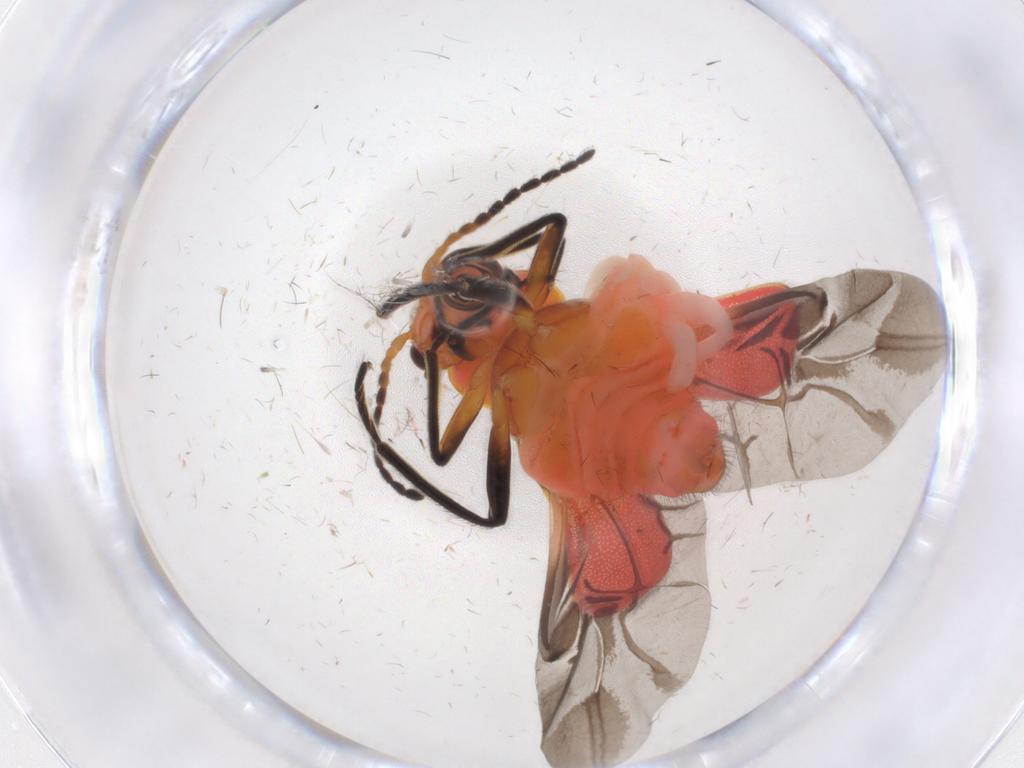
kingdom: Animalia
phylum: Arthropoda
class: Insecta
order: Coleoptera
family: Melyridae
